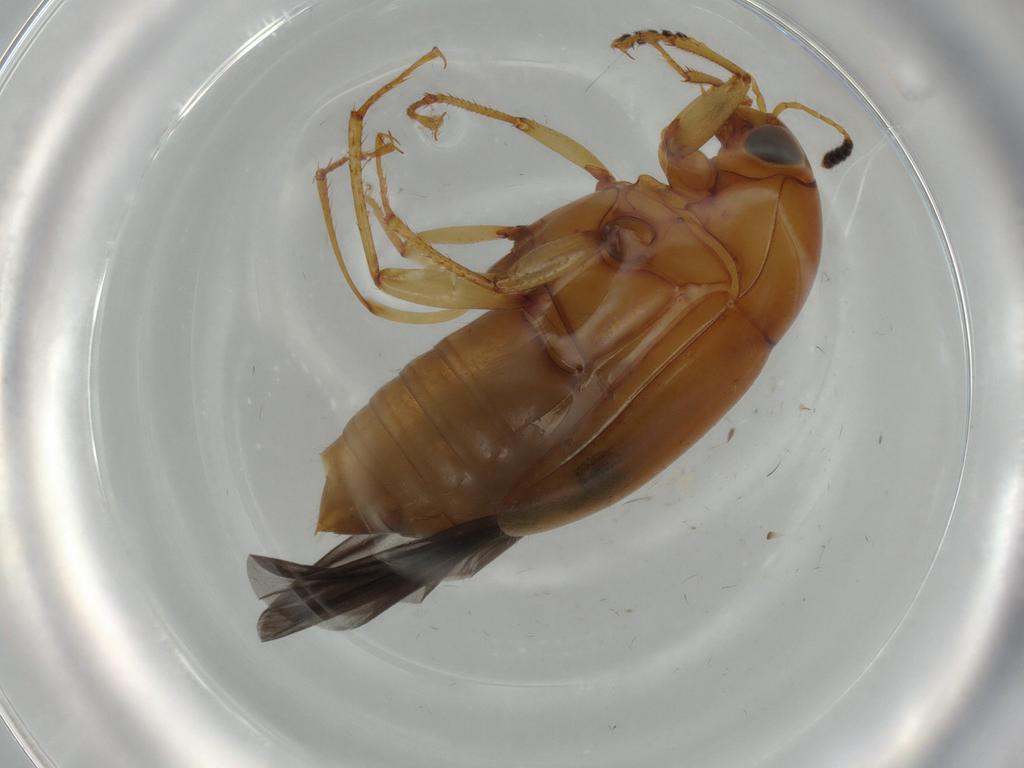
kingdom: Animalia
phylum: Arthropoda
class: Insecta
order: Coleoptera
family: Staphylinidae
